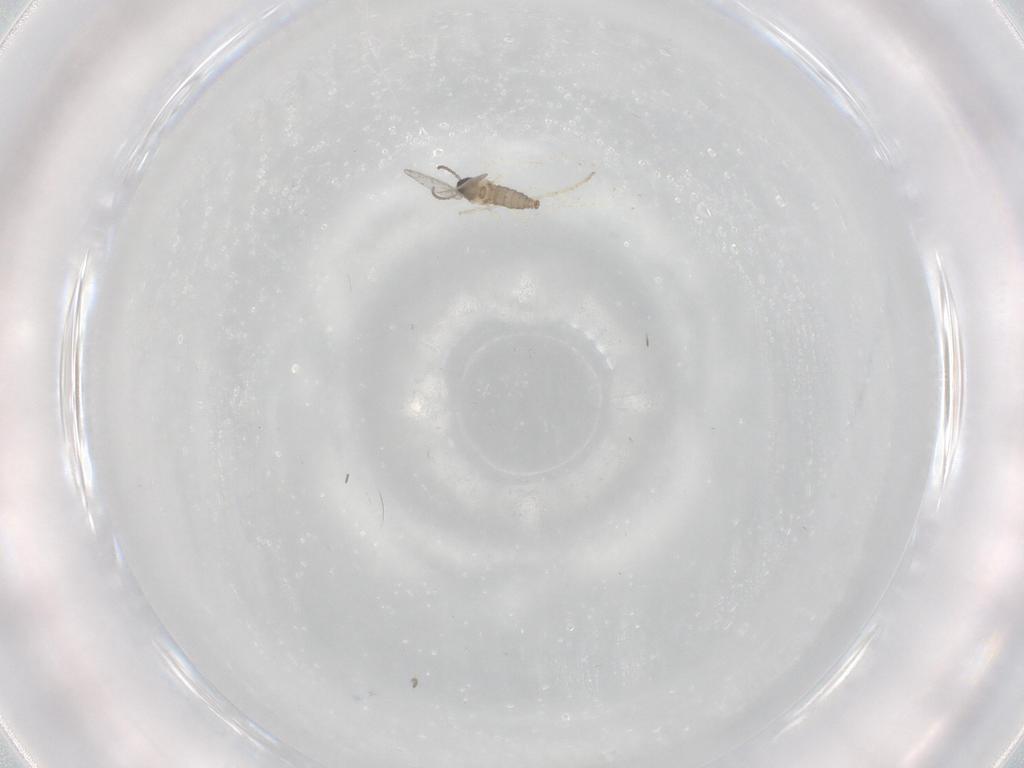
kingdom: Animalia
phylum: Arthropoda
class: Insecta
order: Diptera
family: Cecidomyiidae
